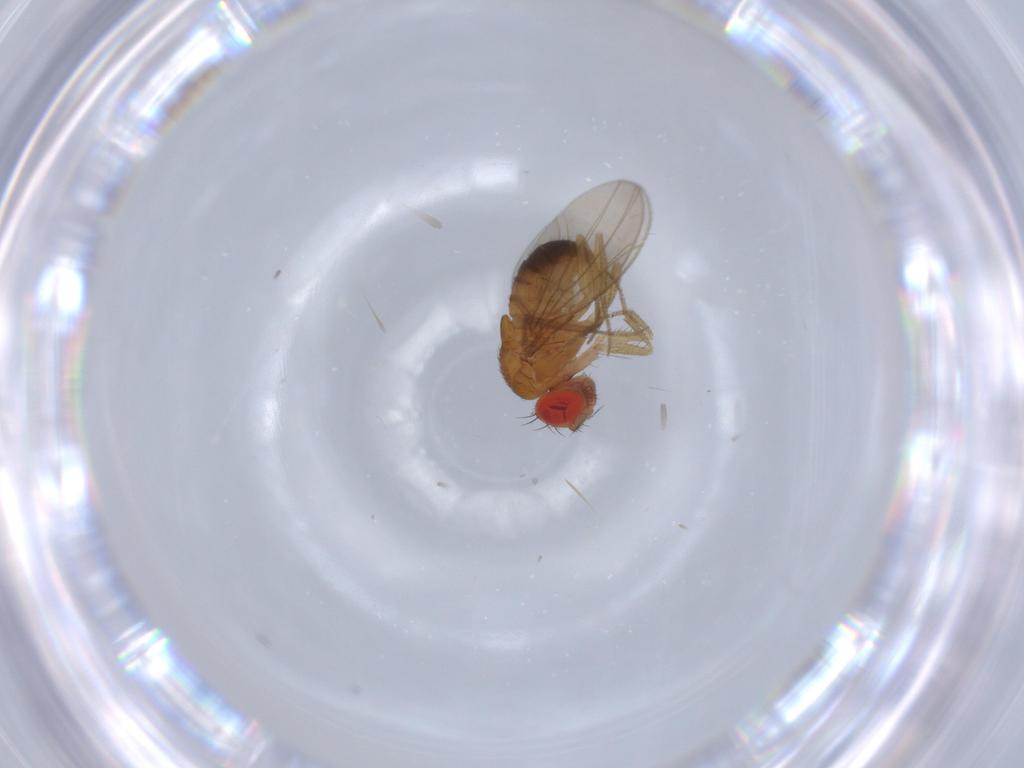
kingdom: Animalia
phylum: Arthropoda
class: Insecta
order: Diptera
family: Drosophilidae
